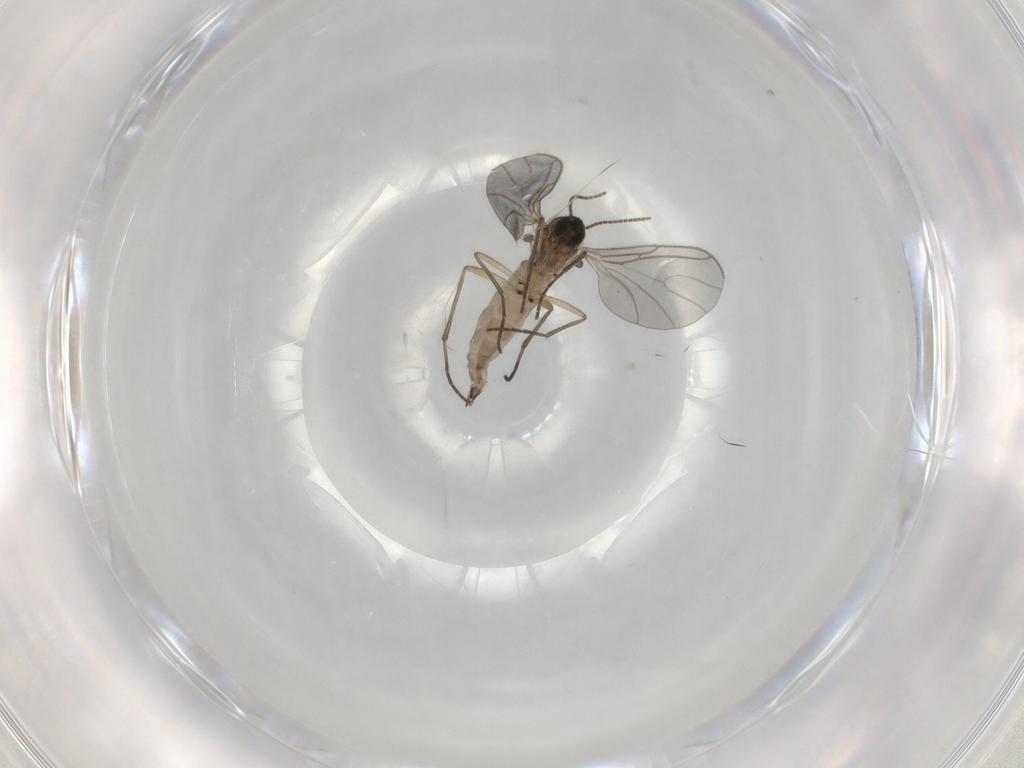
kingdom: Animalia
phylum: Arthropoda
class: Insecta
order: Diptera
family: Sciaridae
